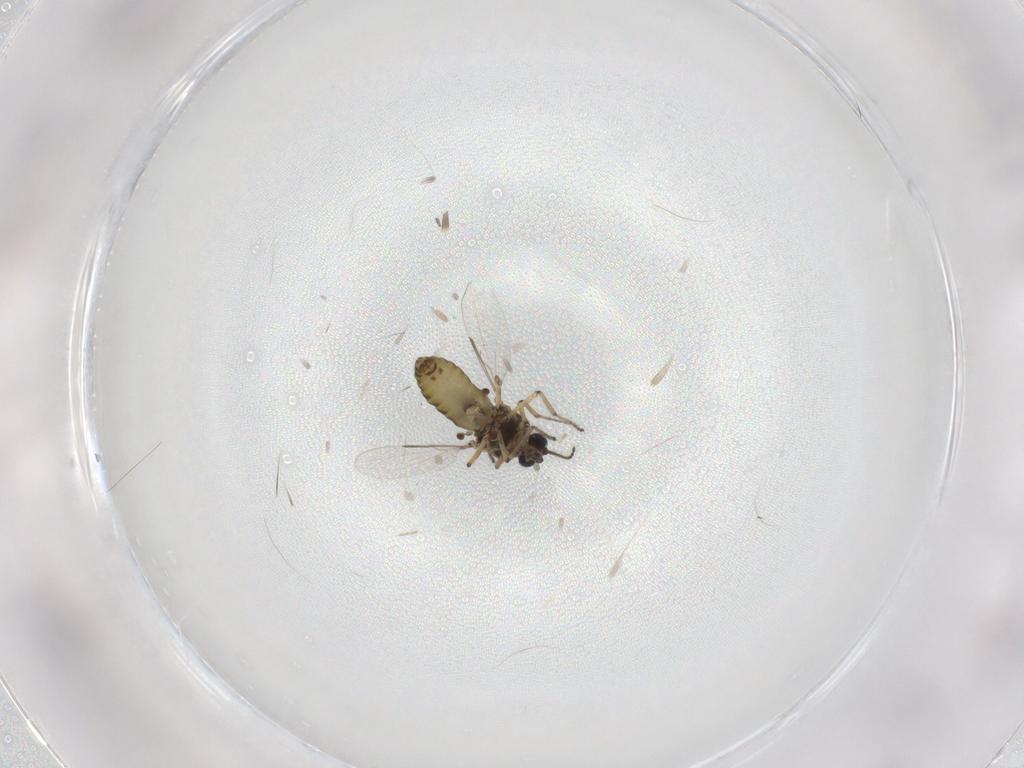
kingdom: Animalia
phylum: Arthropoda
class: Insecta
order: Diptera
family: Ceratopogonidae
